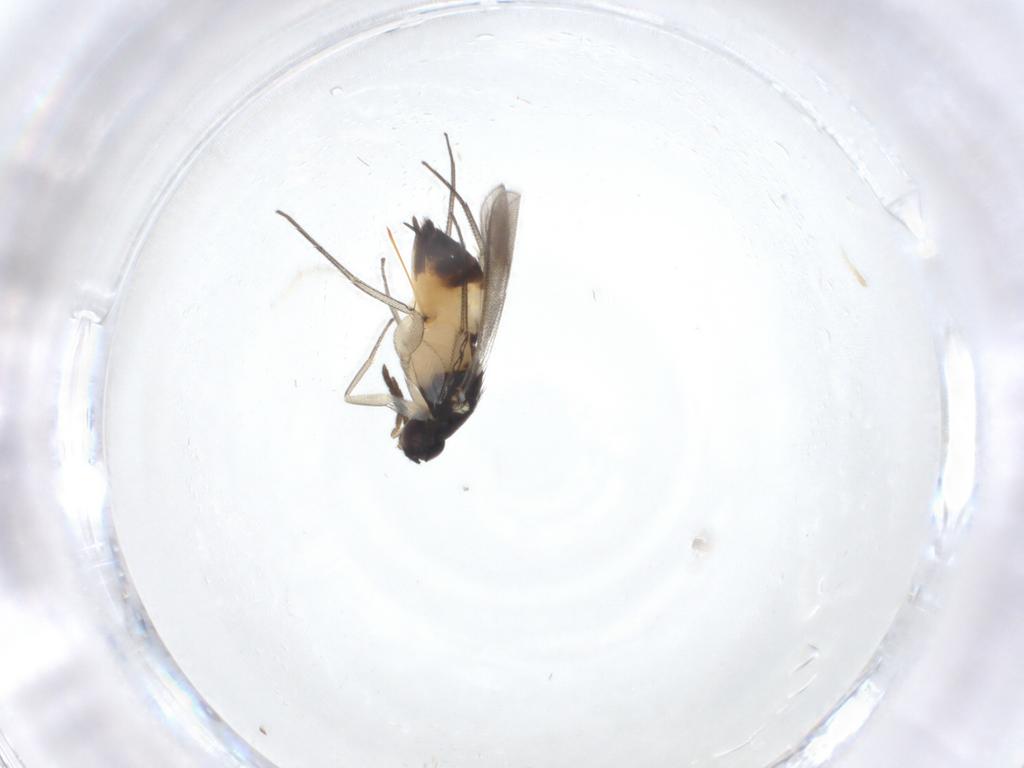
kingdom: Animalia
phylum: Arthropoda
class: Insecta
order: Hymenoptera
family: Eulophidae
